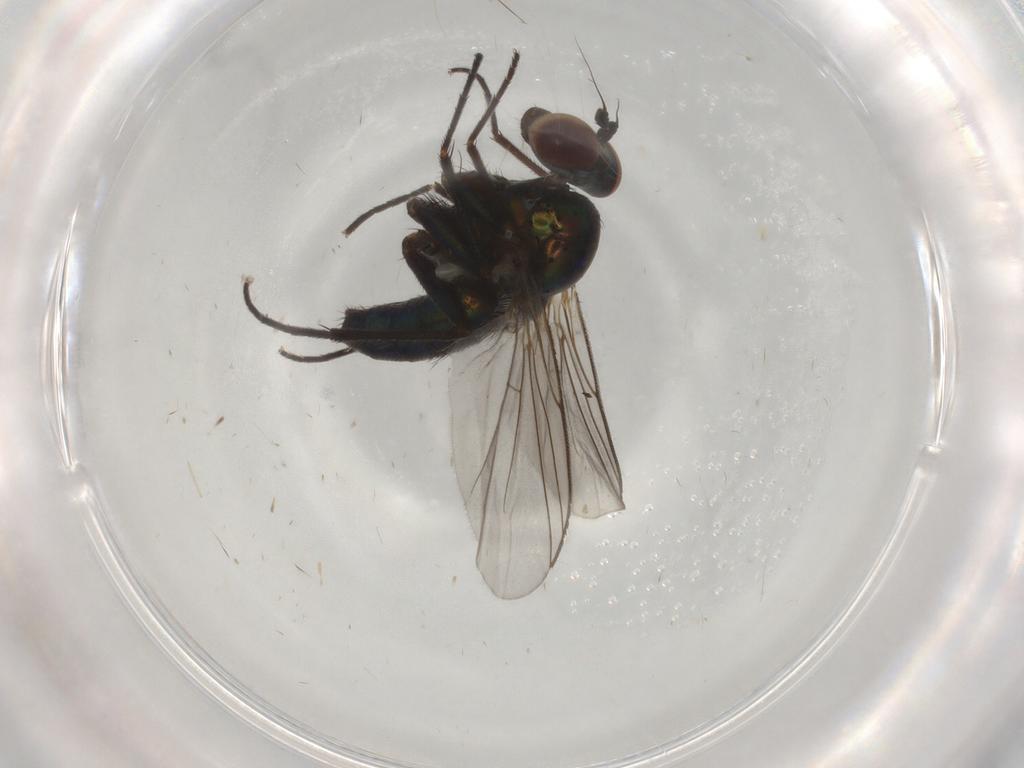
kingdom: Animalia
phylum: Arthropoda
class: Insecta
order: Diptera
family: Dolichopodidae
